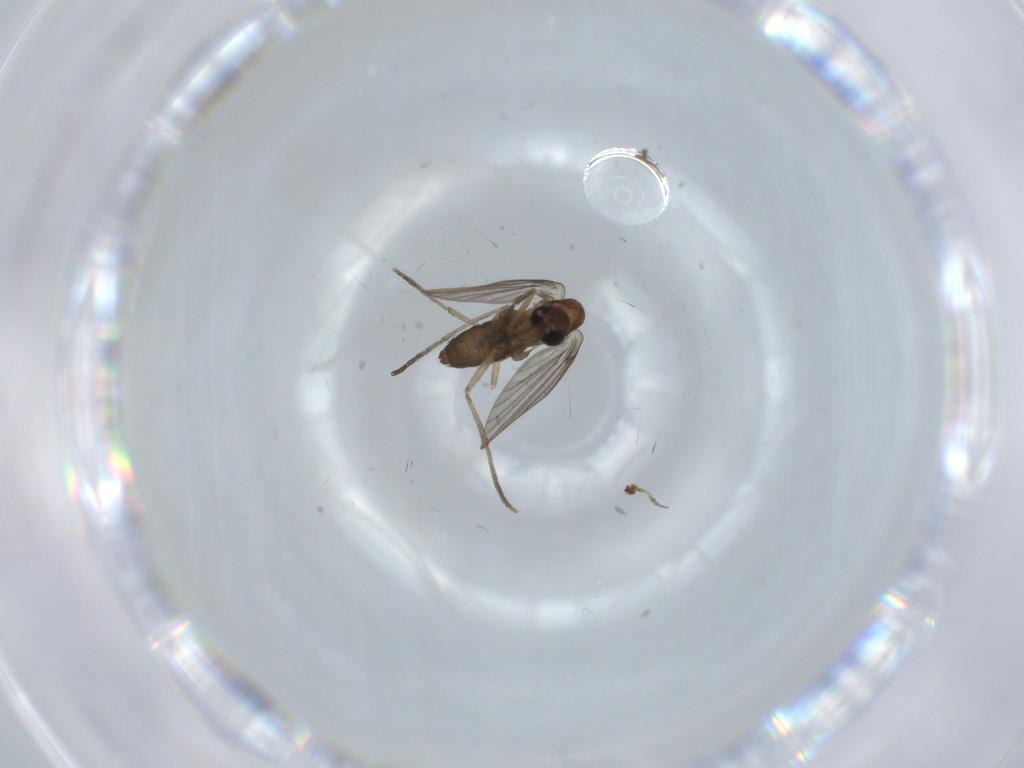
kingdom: Animalia
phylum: Arthropoda
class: Insecta
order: Diptera
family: Psychodidae
